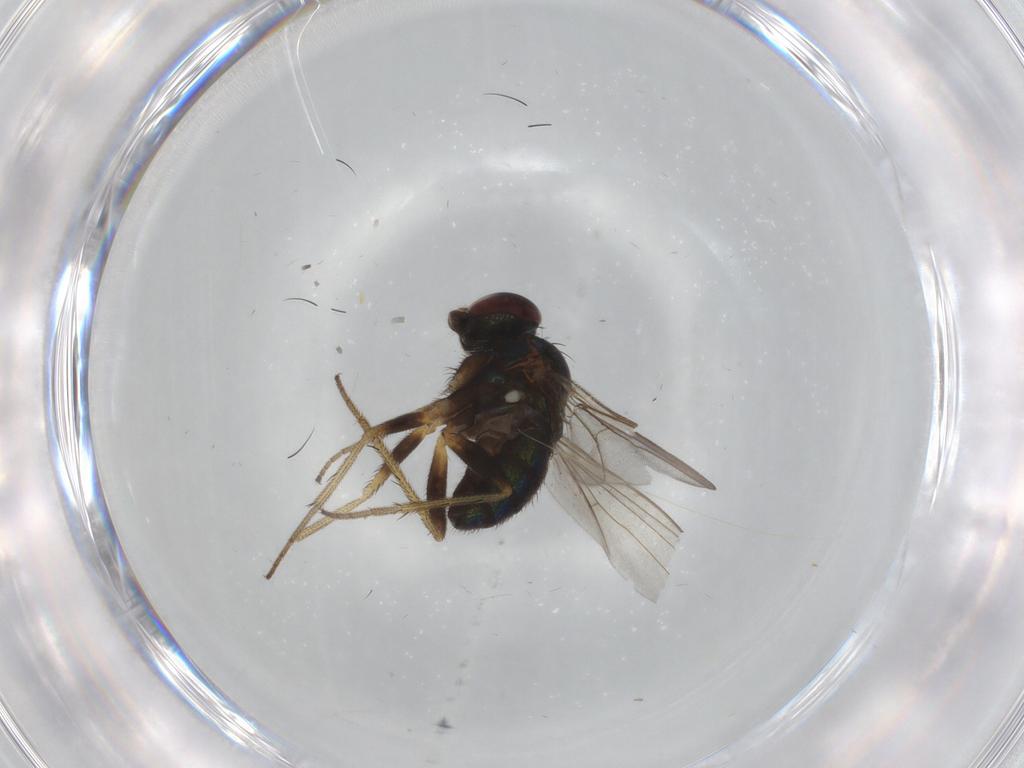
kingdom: Animalia
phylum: Arthropoda
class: Insecta
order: Diptera
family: Dolichopodidae
